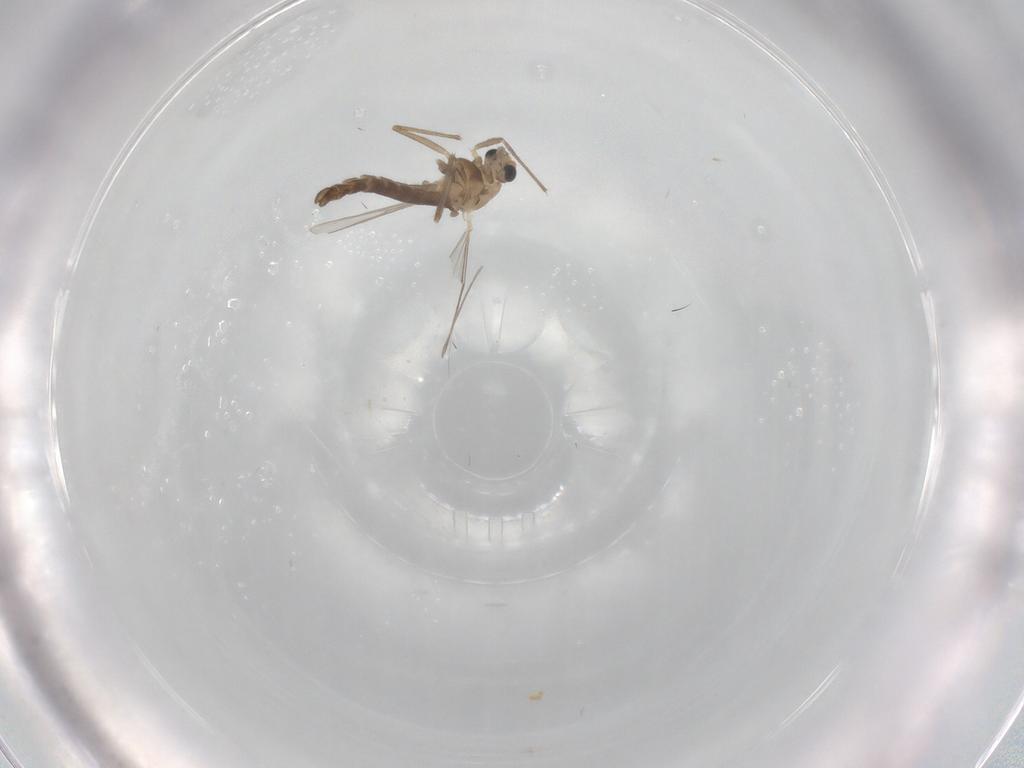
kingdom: Animalia
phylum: Arthropoda
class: Insecta
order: Diptera
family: Chironomidae
